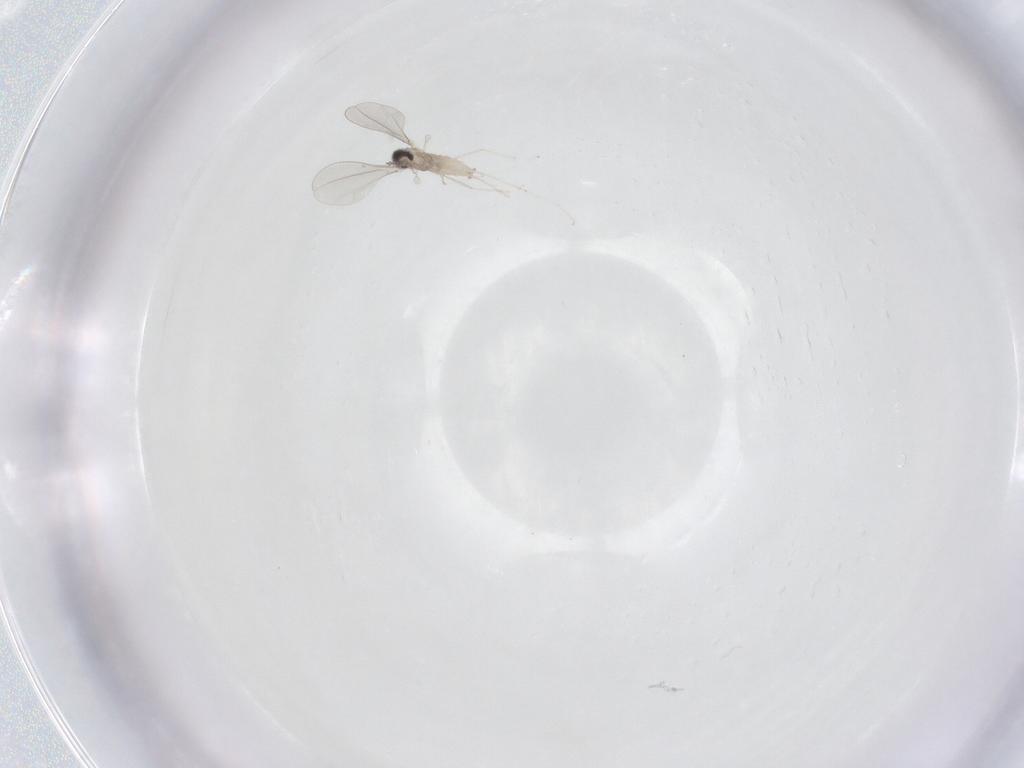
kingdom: Animalia
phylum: Arthropoda
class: Insecta
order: Diptera
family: Cecidomyiidae
